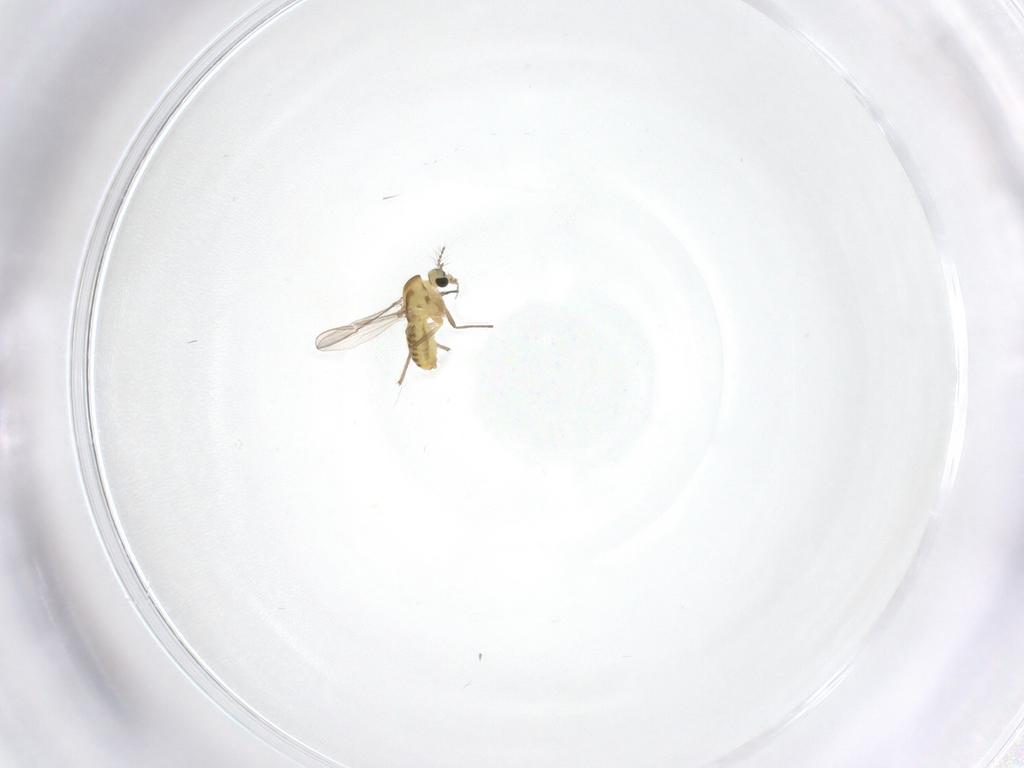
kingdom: Animalia
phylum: Arthropoda
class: Insecta
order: Diptera
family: Chironomidae
